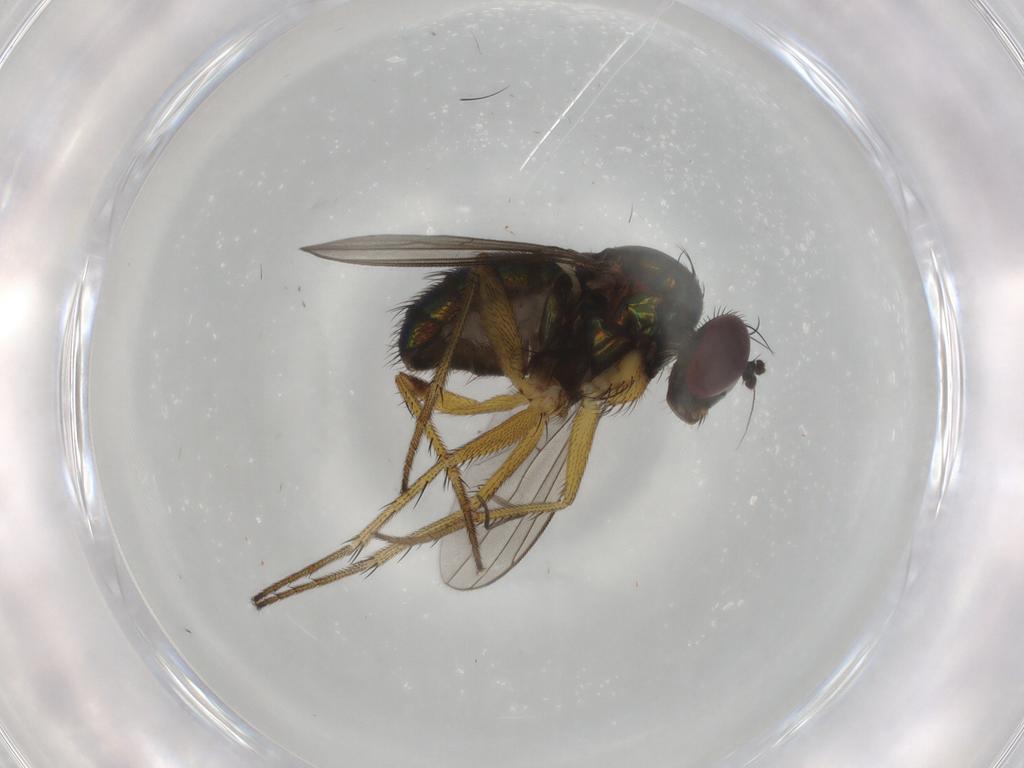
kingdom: Animalia
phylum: Arthropoda
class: Insecta
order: Diptera
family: Dolichopodidae
